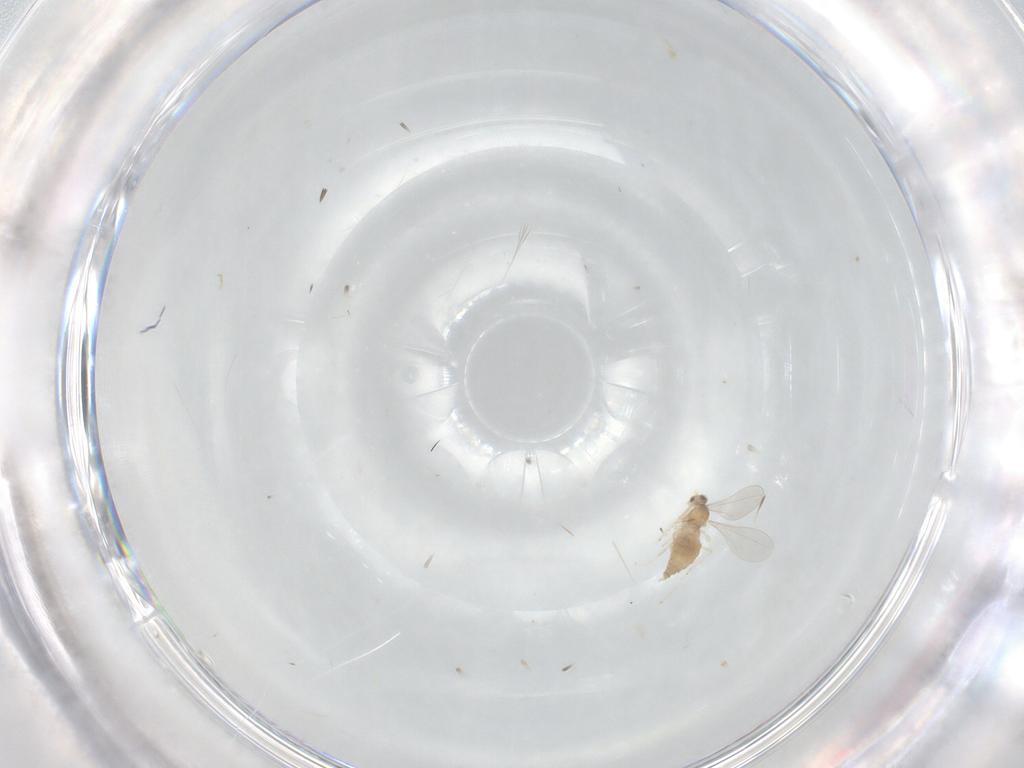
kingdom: Animalia
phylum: Arthropoda
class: Insecta
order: Diptera
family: Cecidomyiidae
